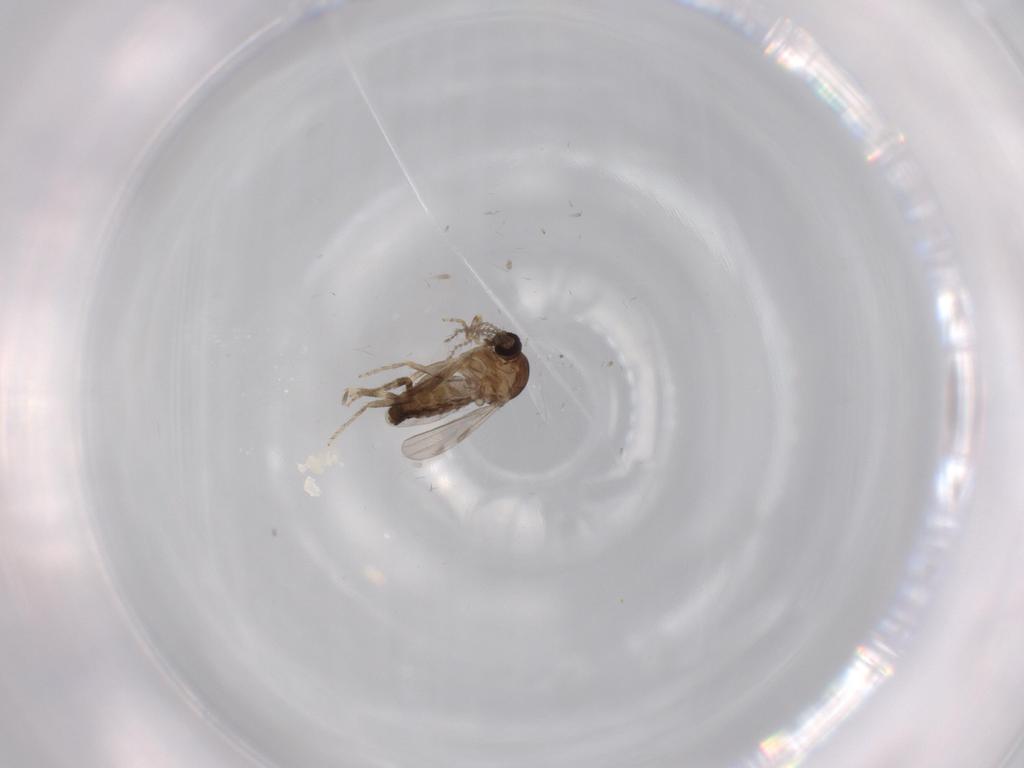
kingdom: Animalia
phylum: Arthropoda
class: Insecta
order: Diptera
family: Ceratopogonidae
